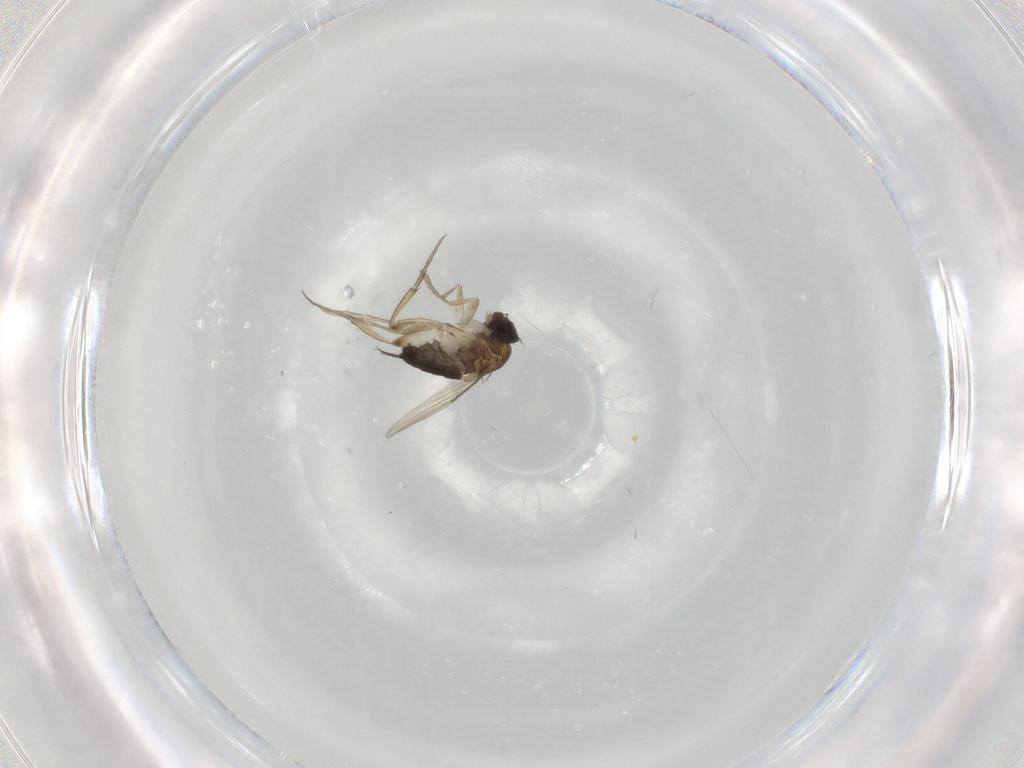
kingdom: Animalia
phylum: Arthropoda
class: Insecta
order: Diptera
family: Phoridae
